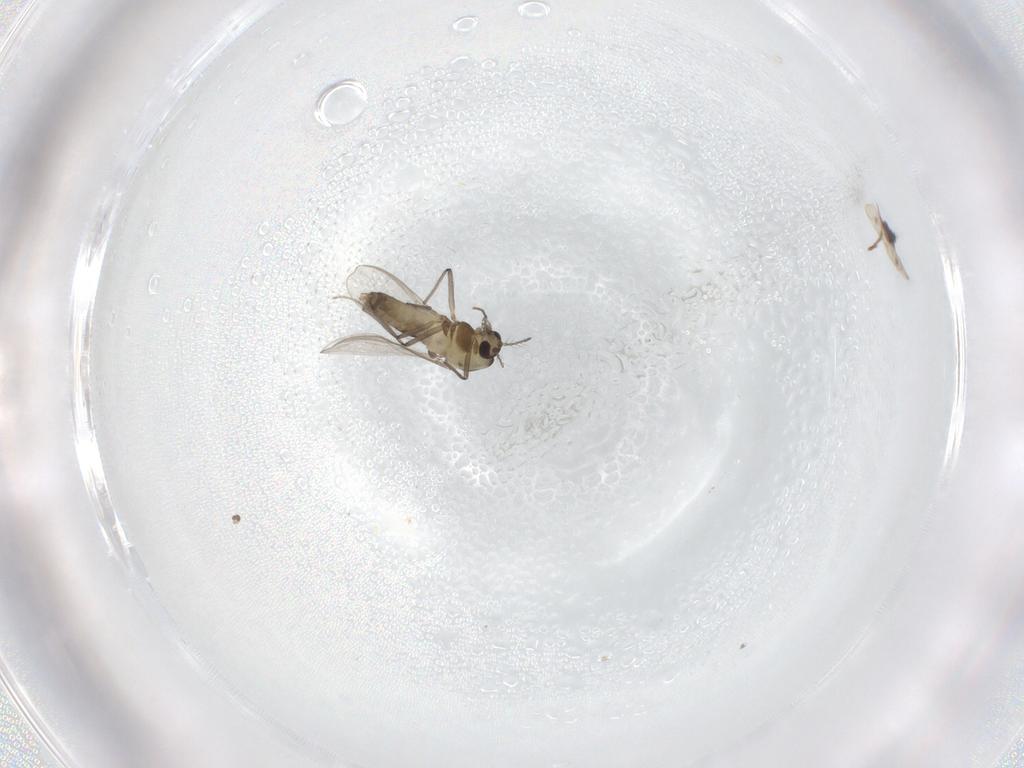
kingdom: Animalia
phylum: Arthropoda
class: Insecta
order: Diptera
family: Chironomidae
